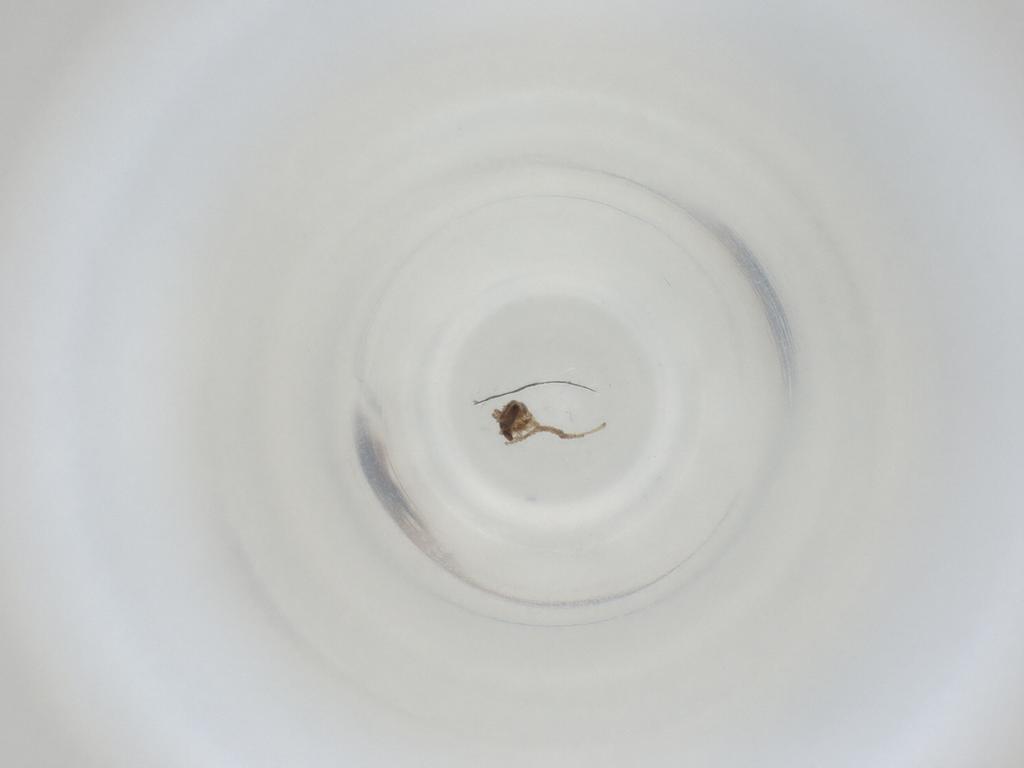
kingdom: Animalia
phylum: Arthropoda
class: Insecta
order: Diptera
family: Cecidomyiidae
